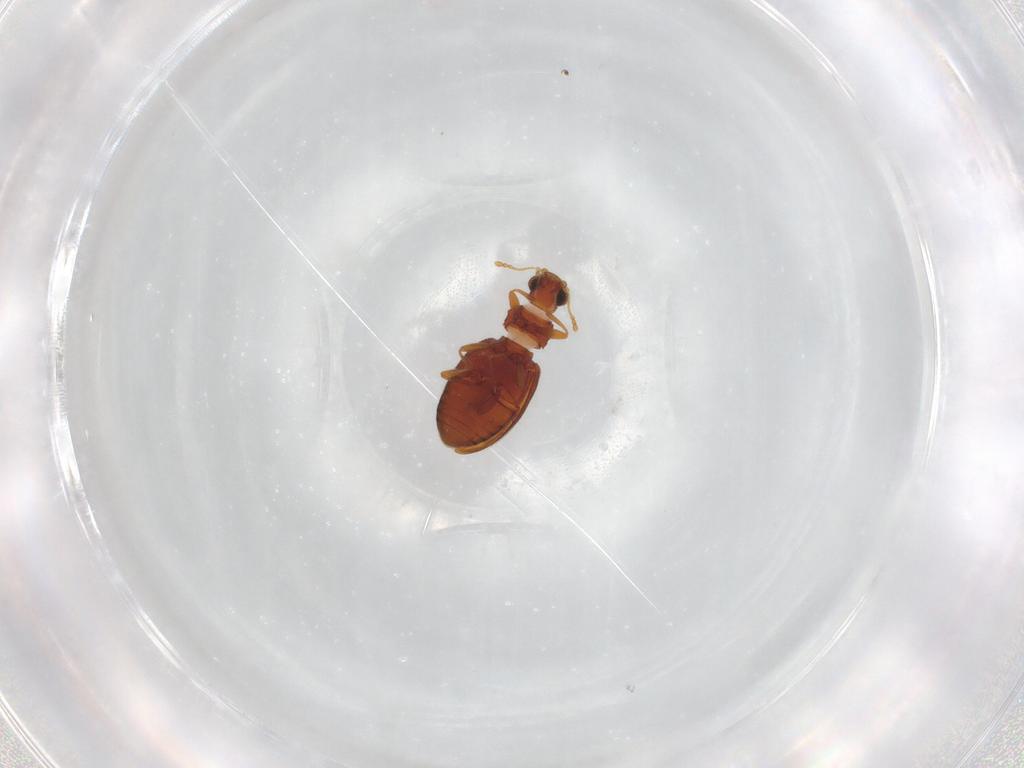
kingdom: Animalia
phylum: Arthropoda
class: Insecta
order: Coleoptera
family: Latridiidae
